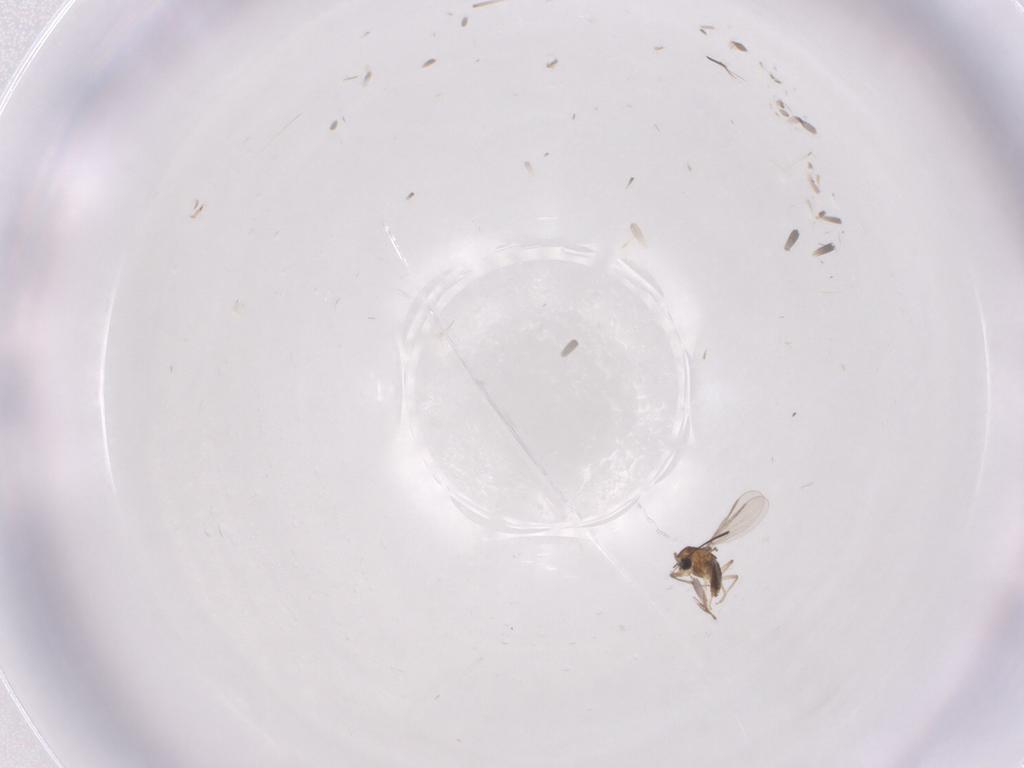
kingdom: Animalia
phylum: Arthropoda
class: Insecta
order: Diptera
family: Chironomidae
